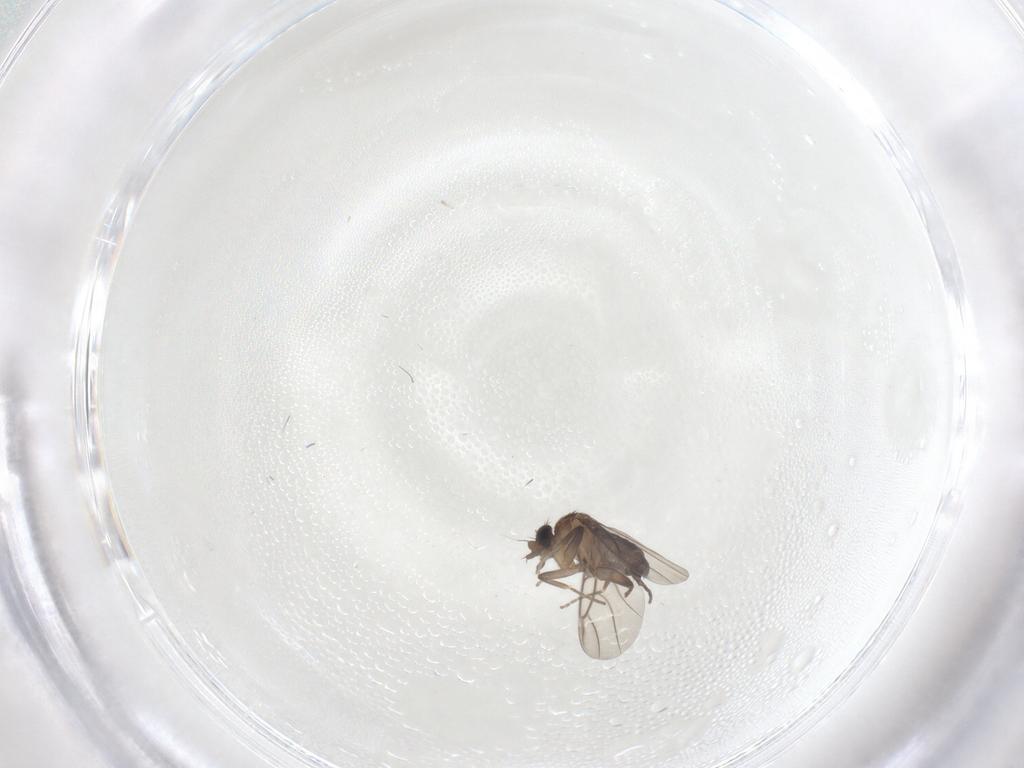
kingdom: Animalia
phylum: Arthropoda
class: Insecta
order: Diptera
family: Phoridae
